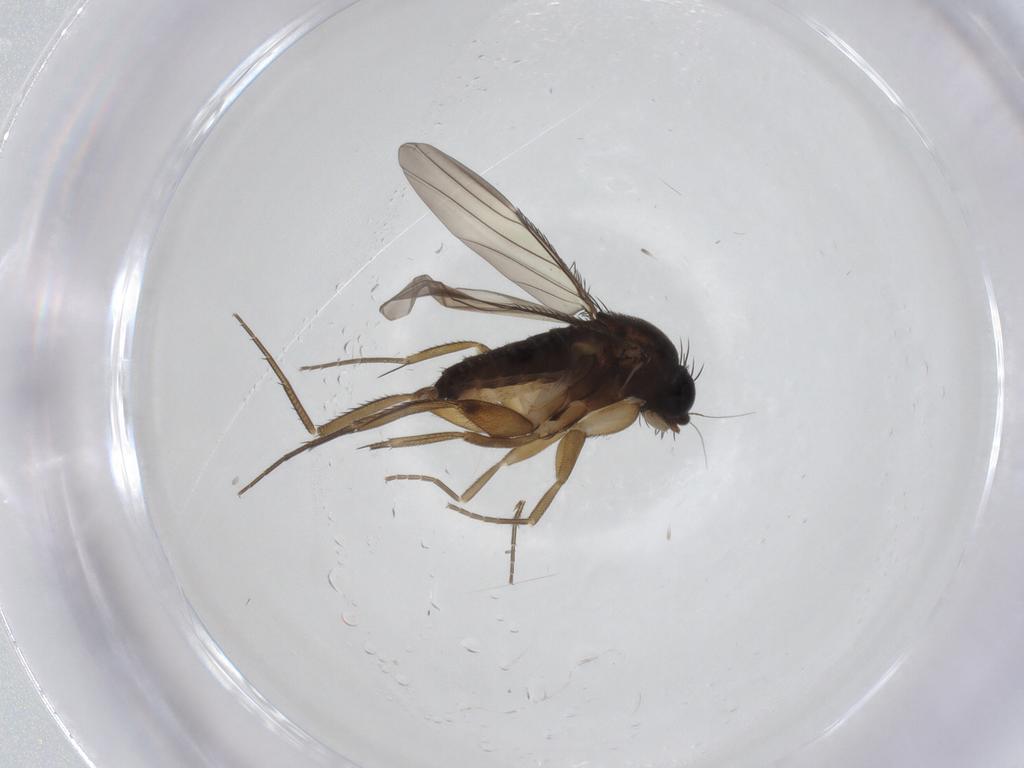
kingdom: Animalia
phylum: Arthropoda
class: Insecta
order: Diptera
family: Phoridae
